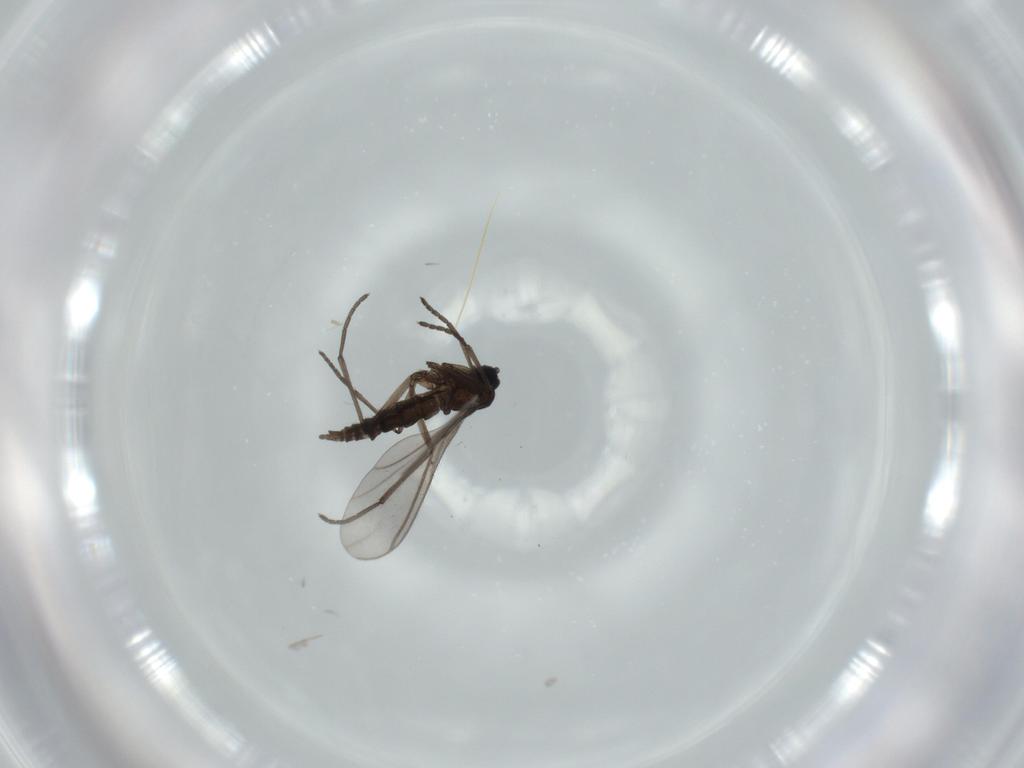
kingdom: Animalia
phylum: Arthropoda
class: Insecta
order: Diptera
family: Sciaridae
